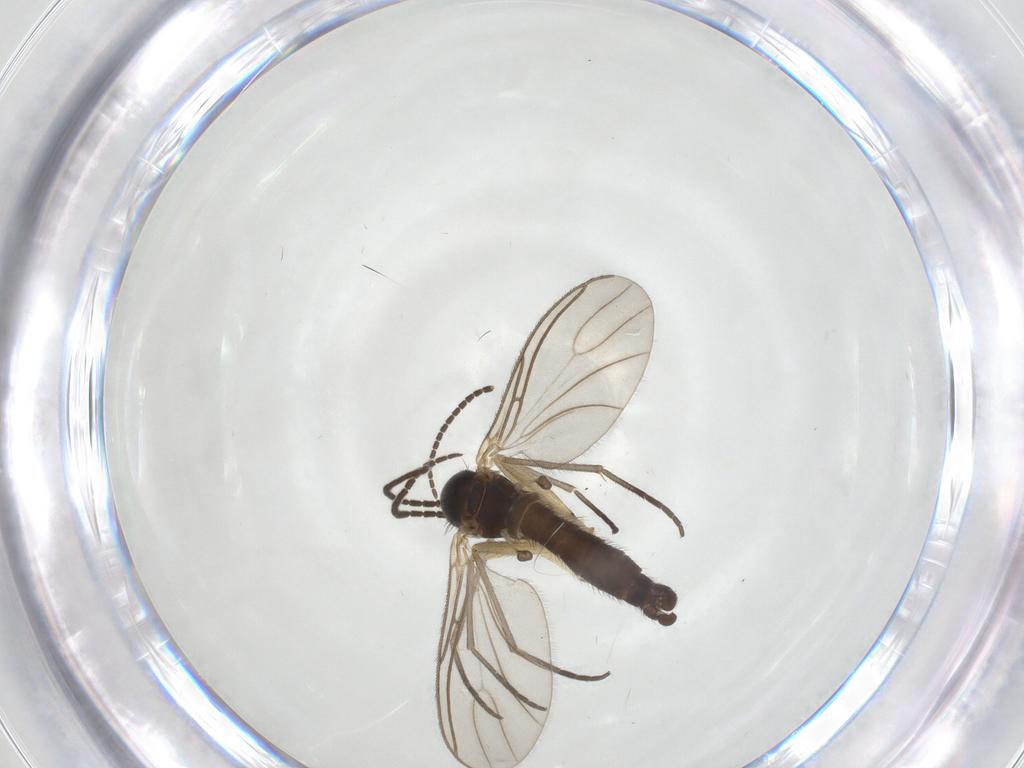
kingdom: Animalia
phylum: Arthropoda
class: Insecta
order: Diptera
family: Sciaridae
